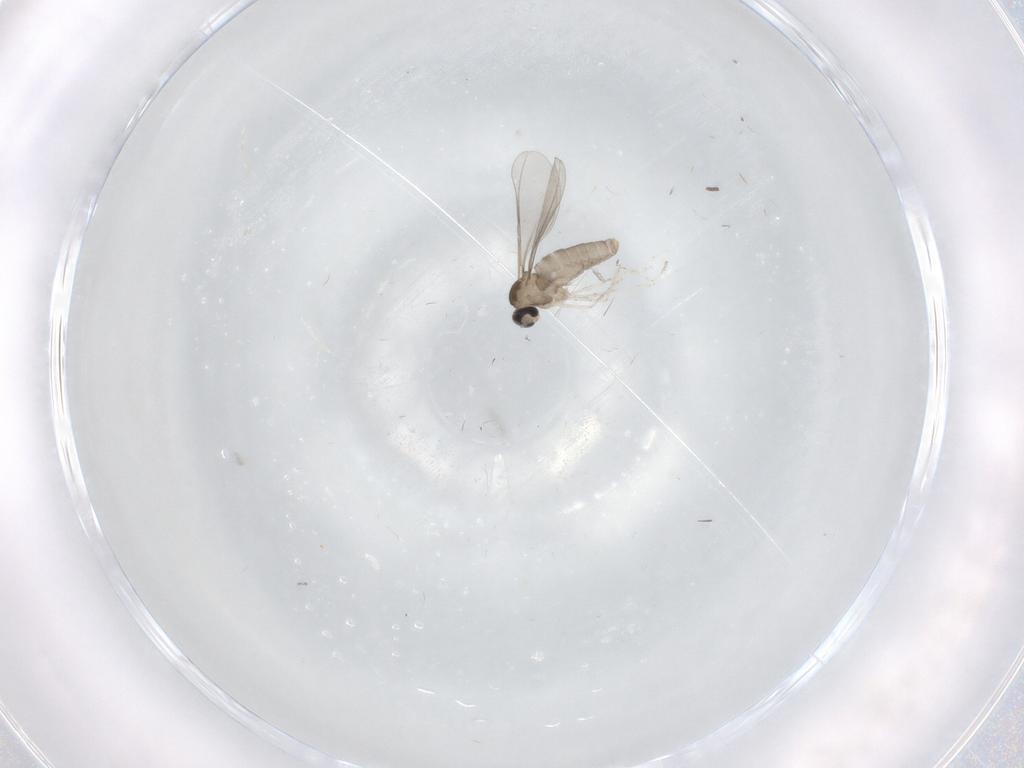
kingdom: Animalia
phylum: Arthropoda
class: Insecta
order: Diptera
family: Cecidomyiidae
